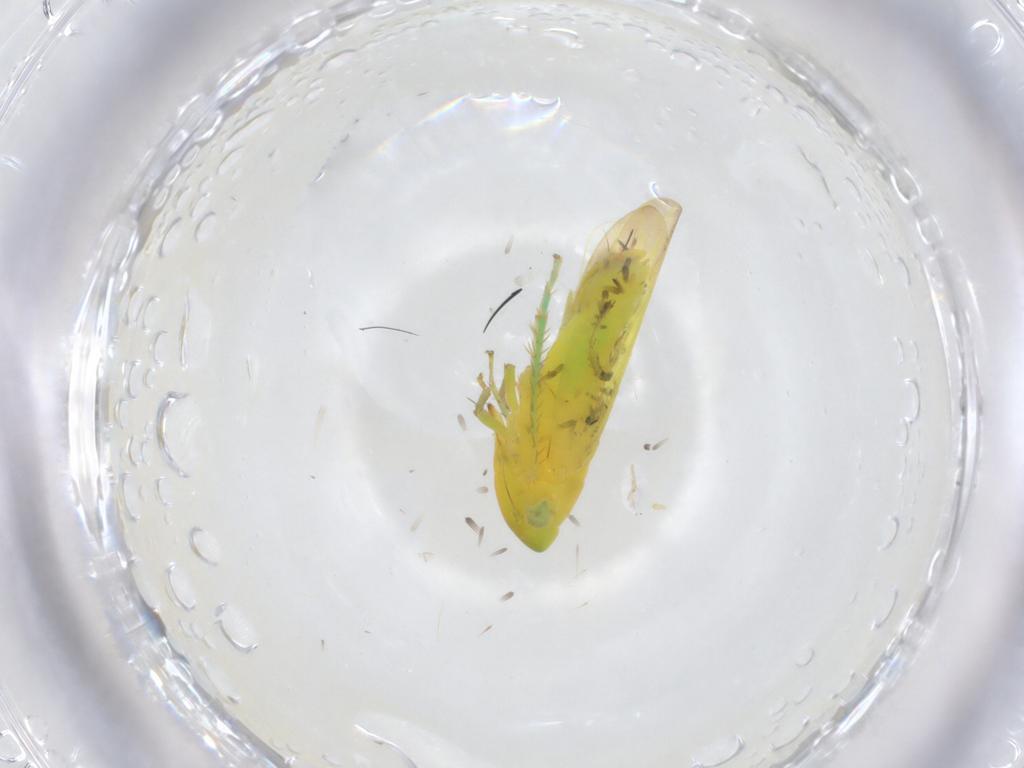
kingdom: Animalia
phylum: Arthropoda
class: Insecta
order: Hemiptera
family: Cicadellidae
